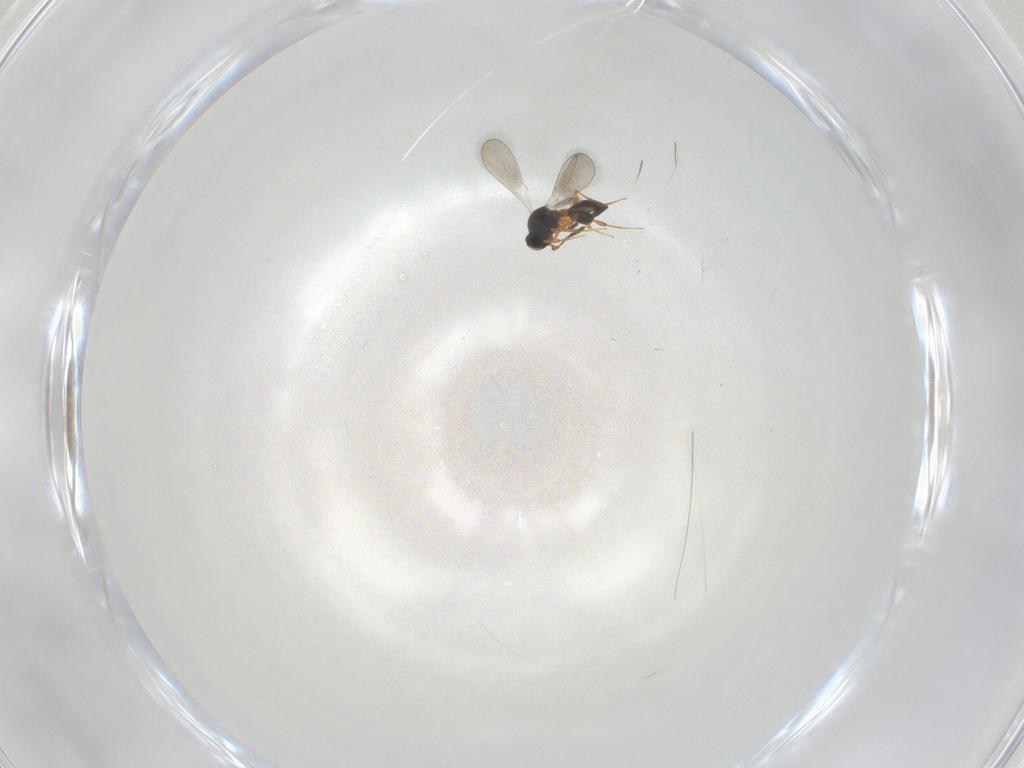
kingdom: Animalia
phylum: Arthropoda
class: Insecta
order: Hymenoptera
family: Platygastridae
